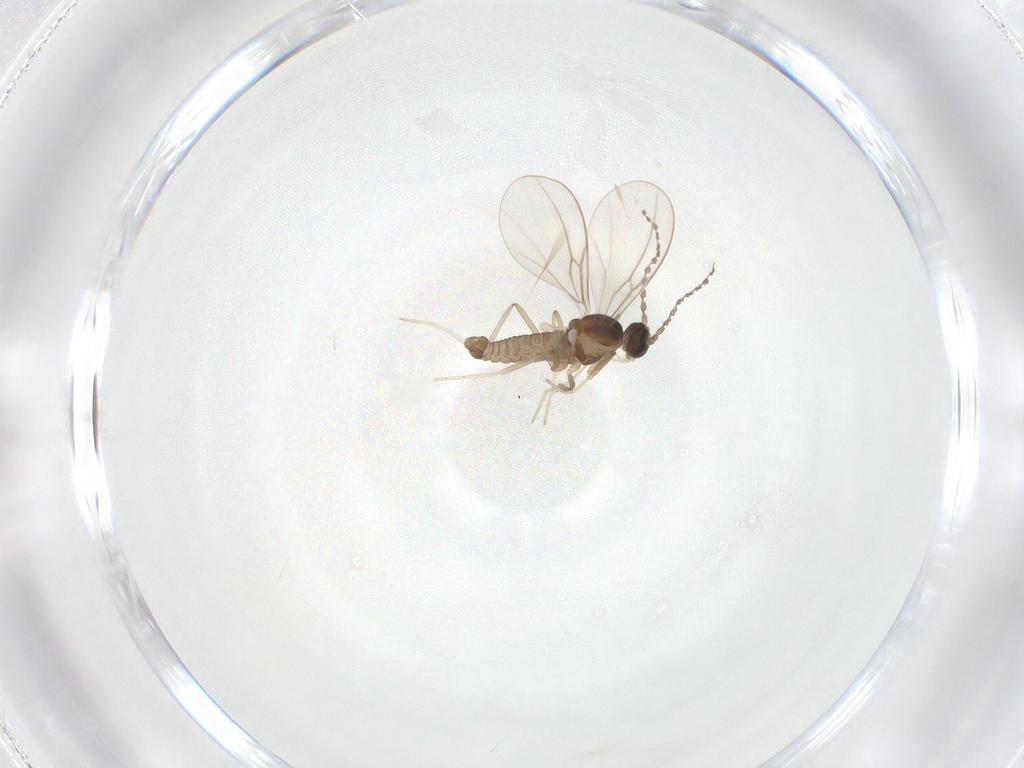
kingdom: Animalia
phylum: Arthropoda
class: Insecta
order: Diptera
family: Cecidomyiidae
